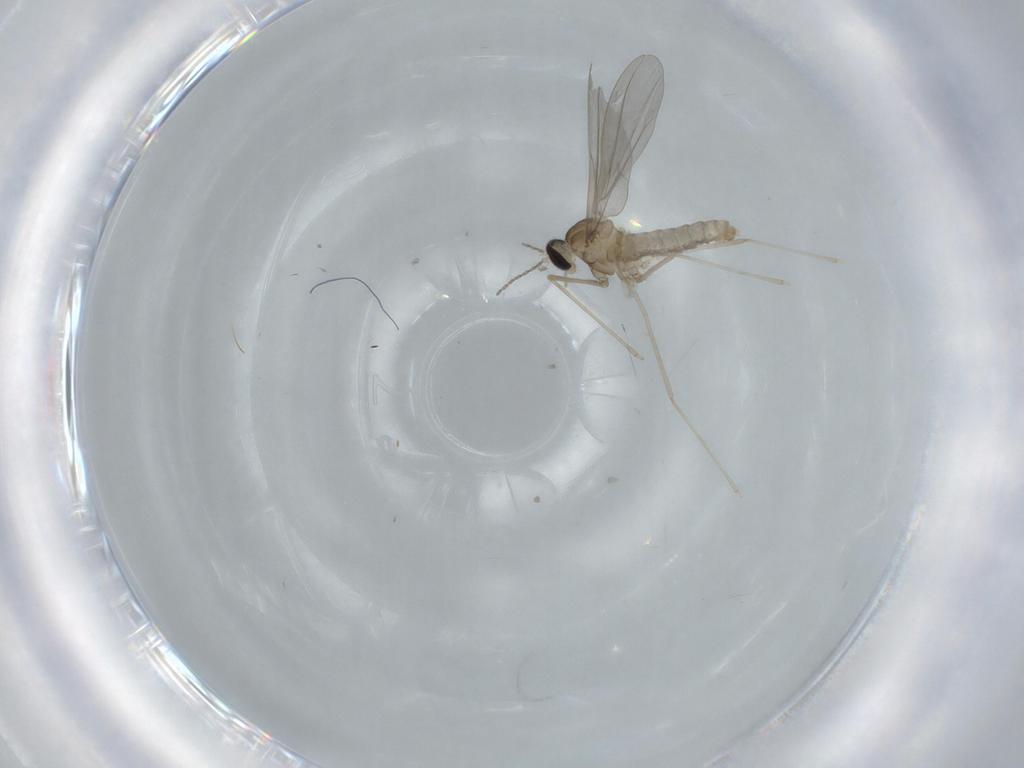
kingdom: Animalia
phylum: Arthropoda
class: Insecta
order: Diptera
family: Cecidomyiidae
